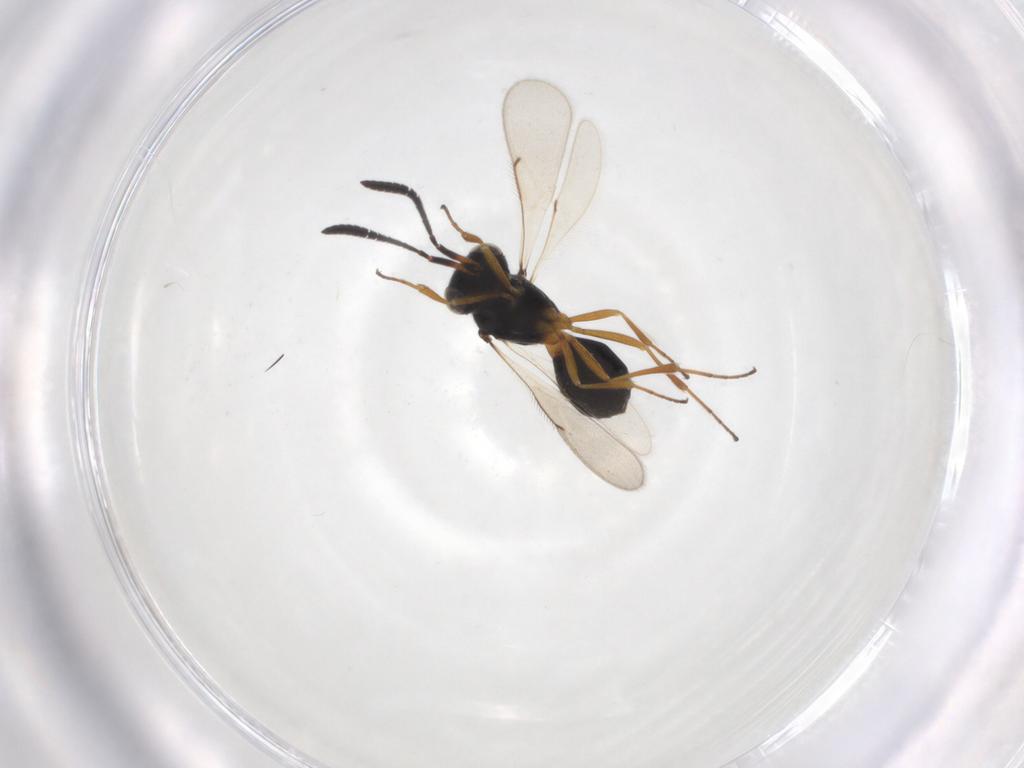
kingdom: Animalia
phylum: Arthropoda
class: Insecta
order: Hymenoptera
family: Scelionidae
